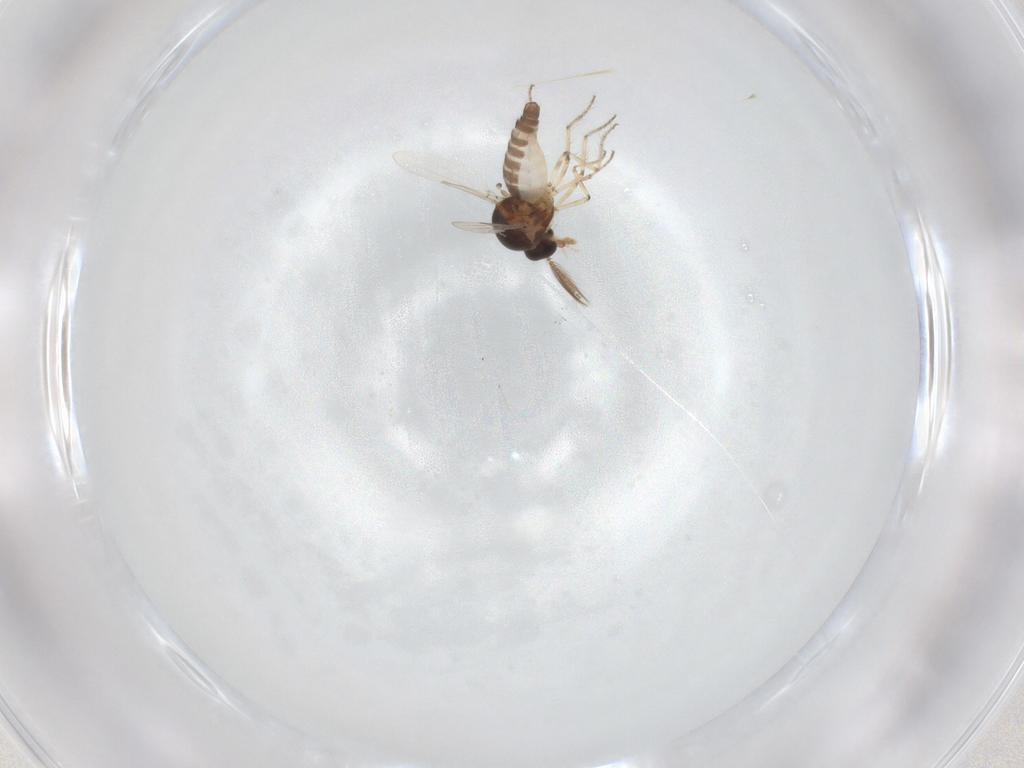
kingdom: Animalia
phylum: Arthropoda
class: Insecta
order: Diptera
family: Ceratopogonidae
